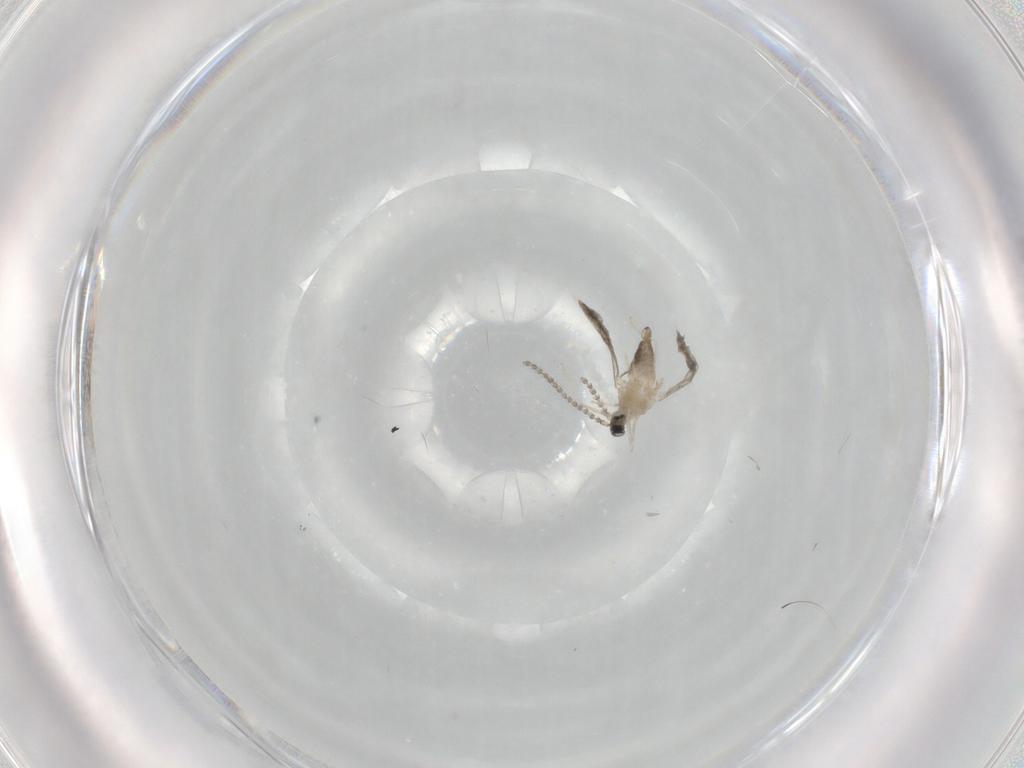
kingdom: Animalia
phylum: Arthropoda
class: Insecta
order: Diptera
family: Cecidomyiidae
